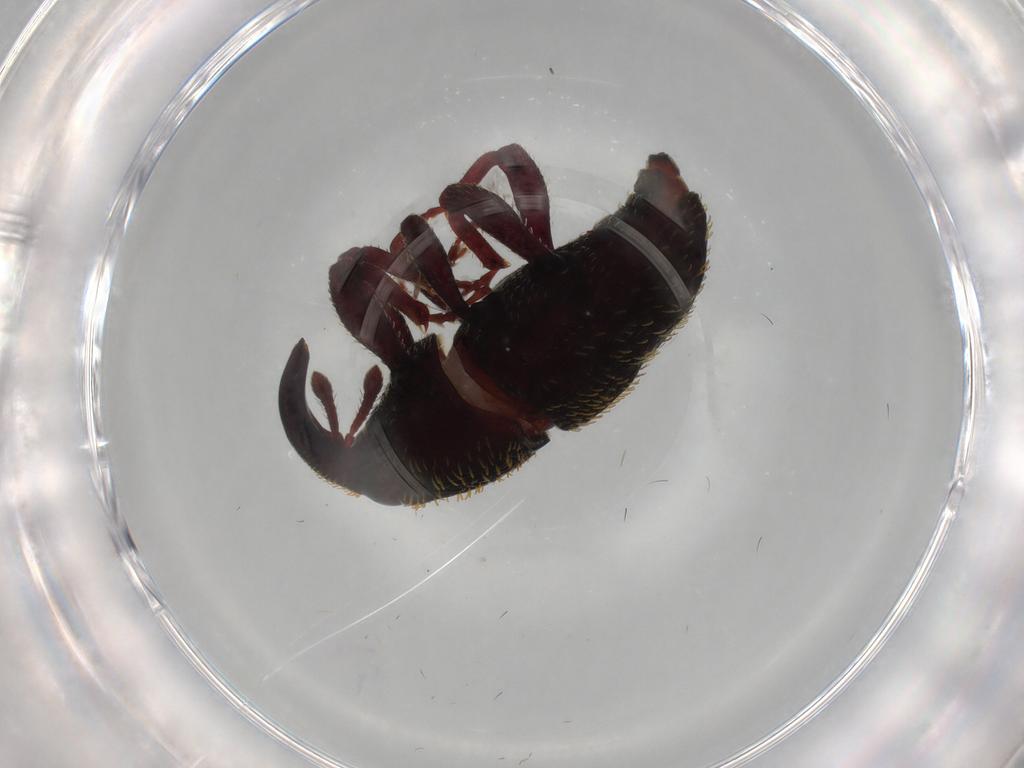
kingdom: Animalia
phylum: Arthropoda
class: Insecta
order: Coleoptera
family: Curculionidae
